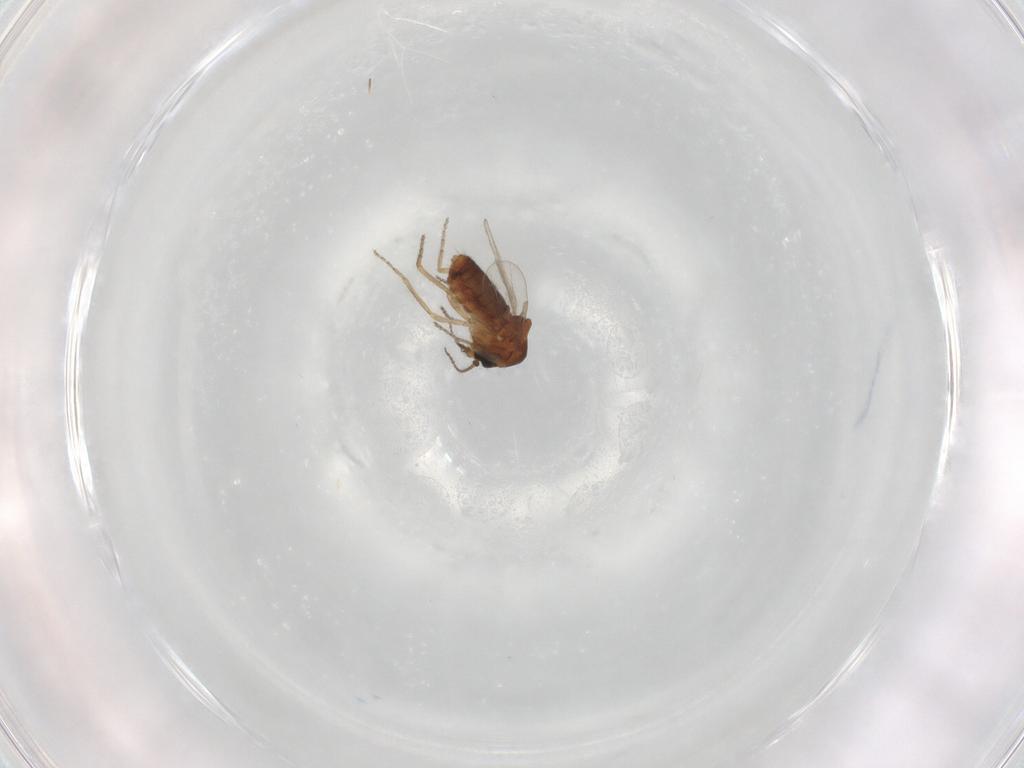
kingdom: Animalia
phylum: Arthropoda
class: Insecta
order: Diptera
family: Ceratopogonidae
